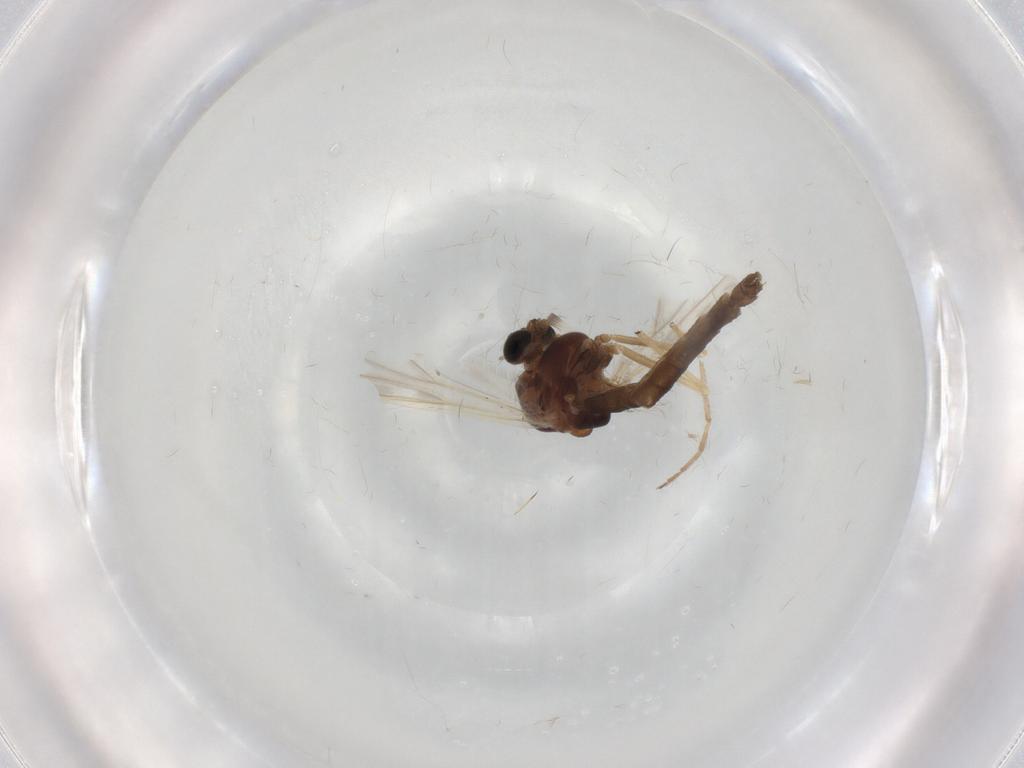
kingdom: Animalia
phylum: Arthropoda
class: Insecta
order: Diptera
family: Chironomidae
